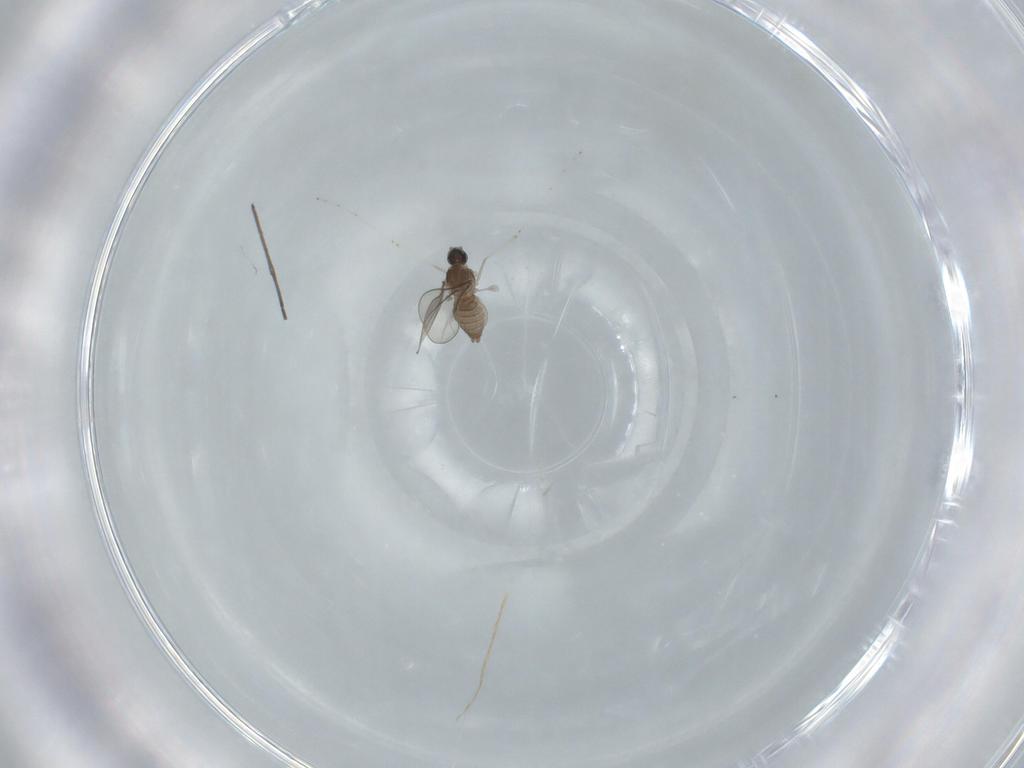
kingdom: Animalia
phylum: Arthropoda
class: Insecta
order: Diptera
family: Cecidomyiidae
